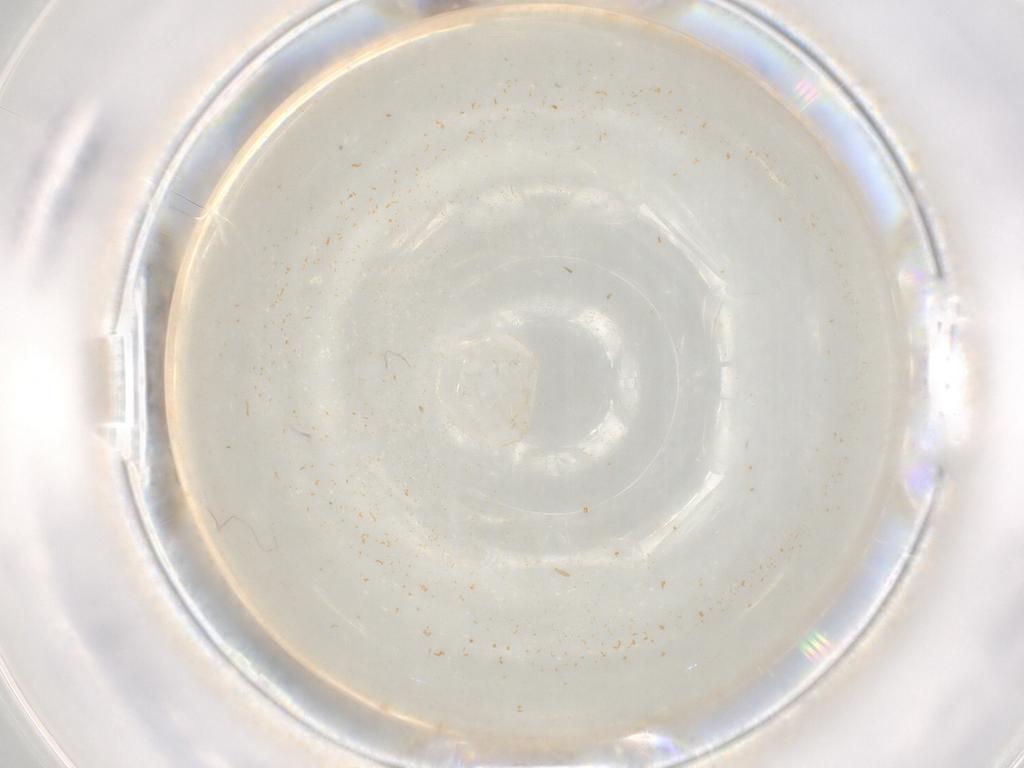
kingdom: Animalia
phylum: Arthropoda
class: Insecta
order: Diptera
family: Cecidomyiidae
